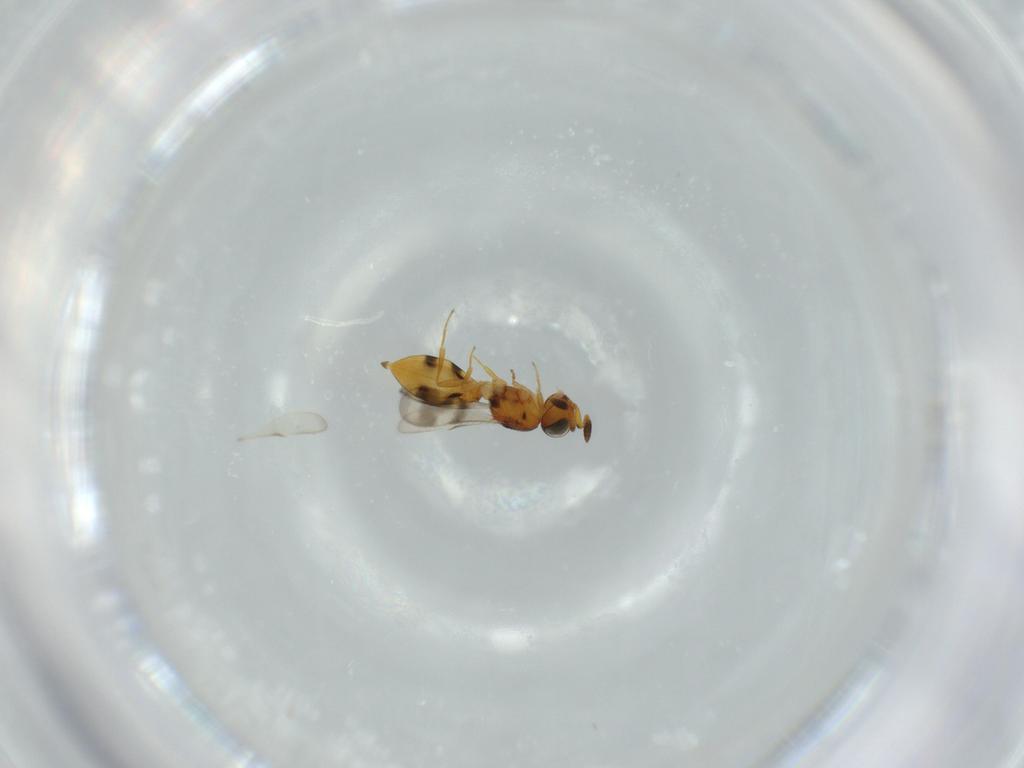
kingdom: Animalia
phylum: Arthropoda
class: Insecta
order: Hymenoptera
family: Scelionidae
